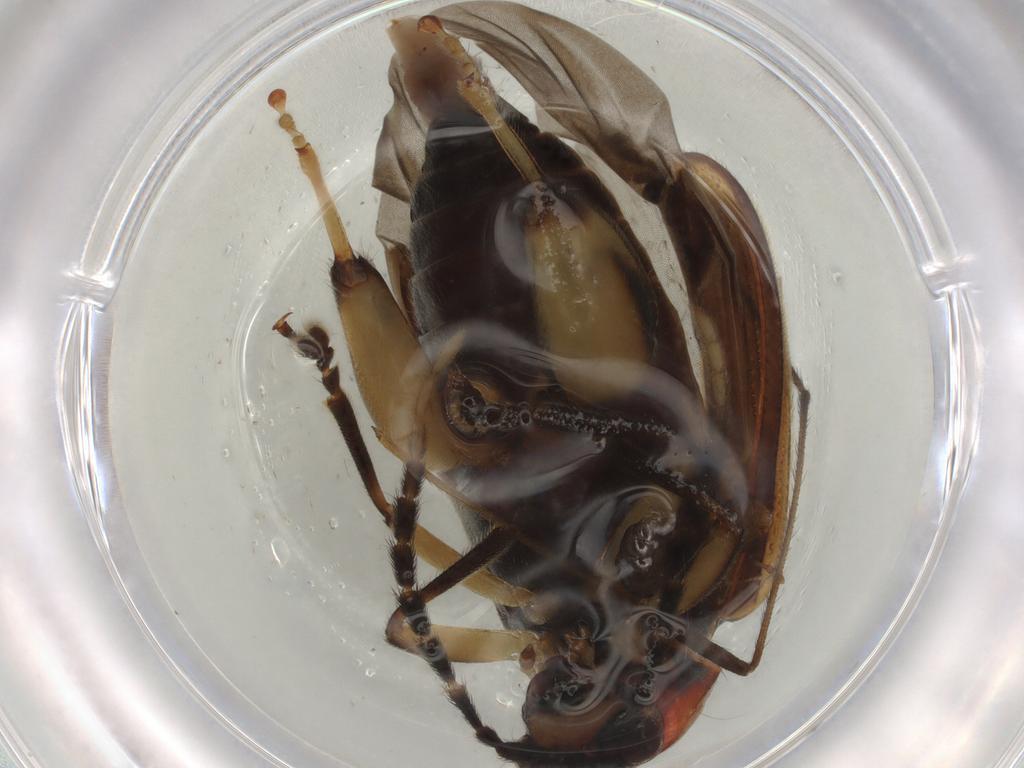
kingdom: Animalia
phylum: Arthropoda
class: Insecta
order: Coleoptera
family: Chrysomelidae
